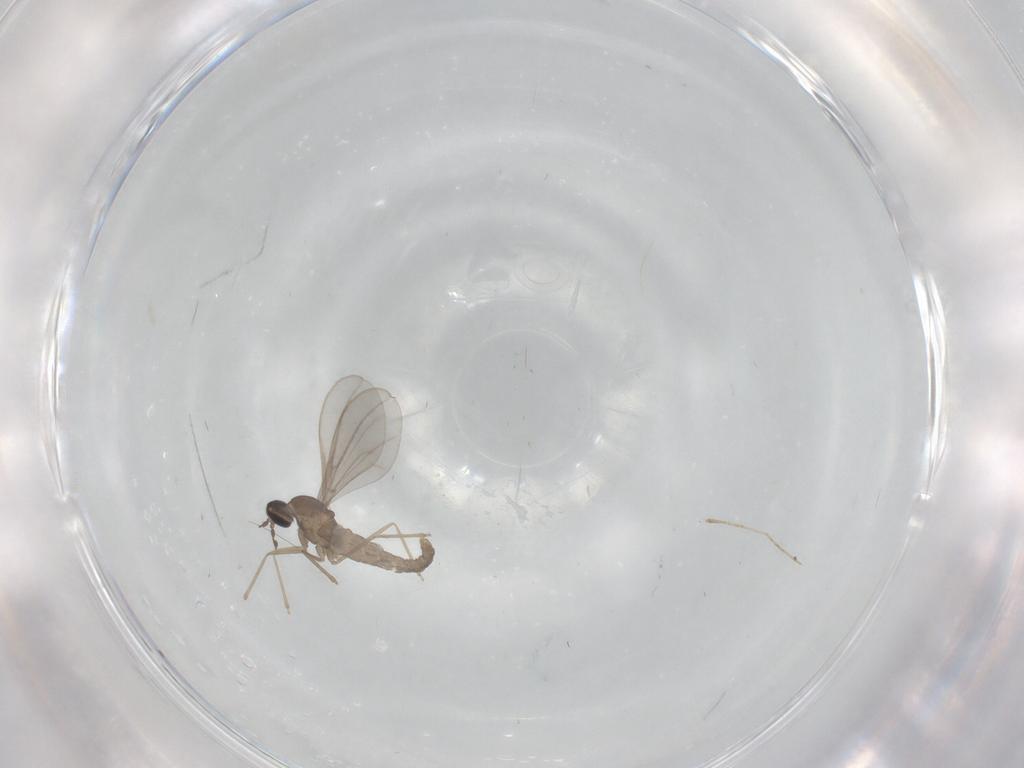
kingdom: Animalia
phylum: Arthropoda
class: Insecta
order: Diptera
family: Cecidomyiidae
